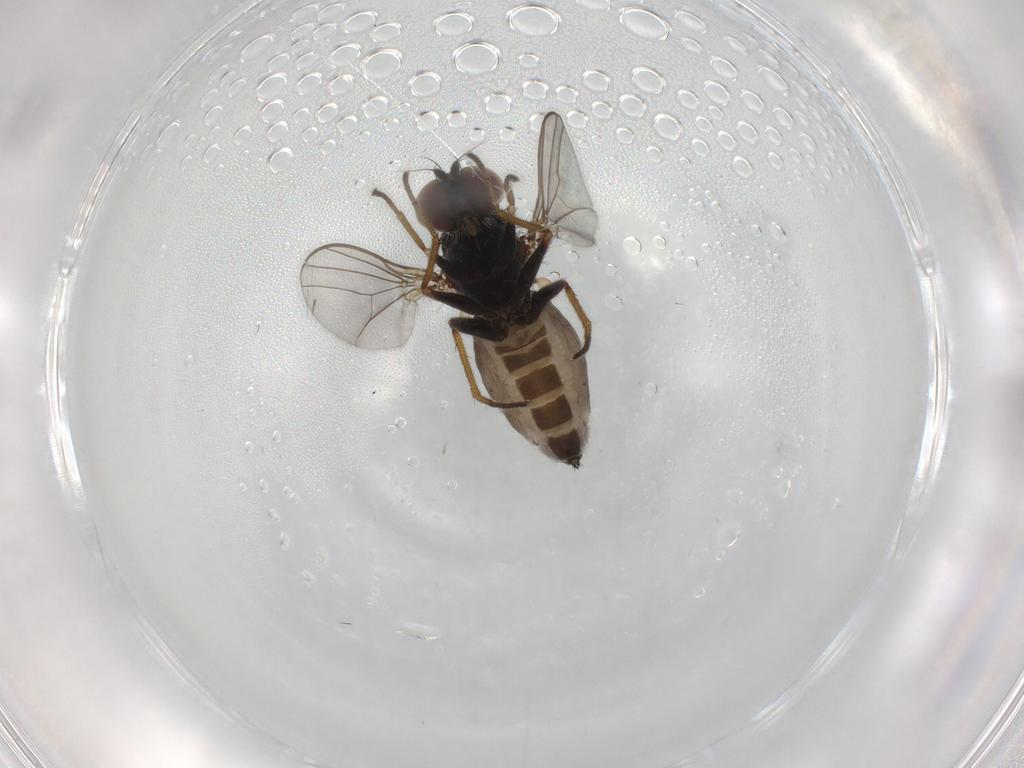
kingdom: Animalia
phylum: Arthropoda
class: Insecta
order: Diptera
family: Dolichopodidae
